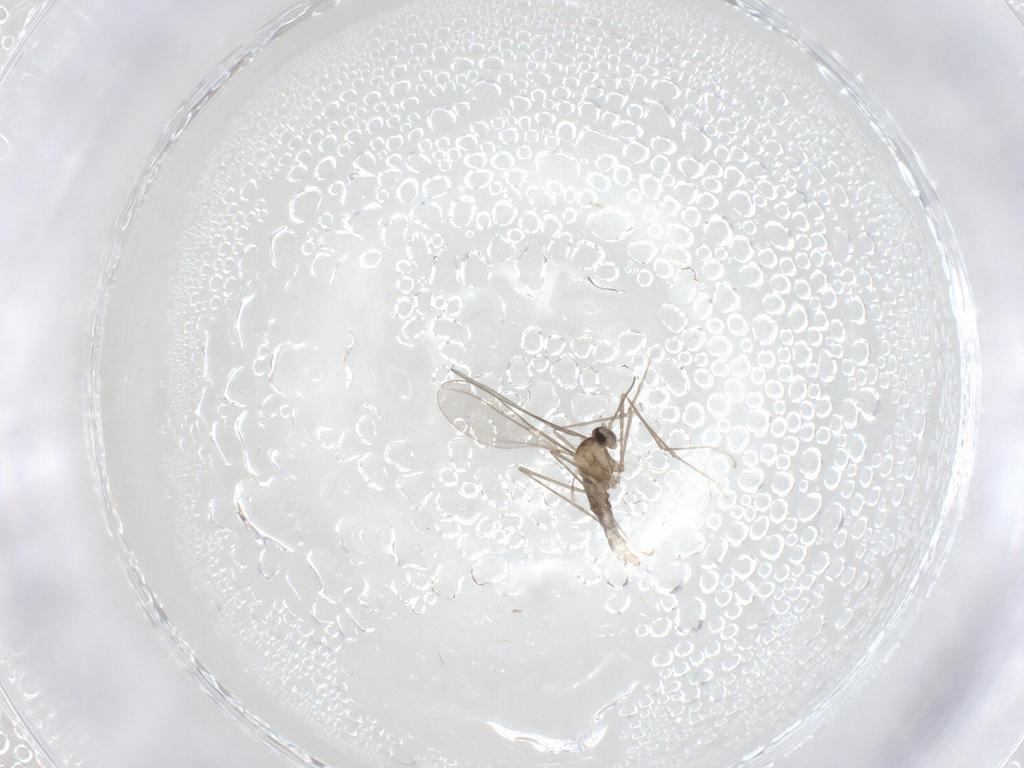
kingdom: Animalia
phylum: Arthropoda
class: Insecta
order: Diptera
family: Cecidomyiidae
